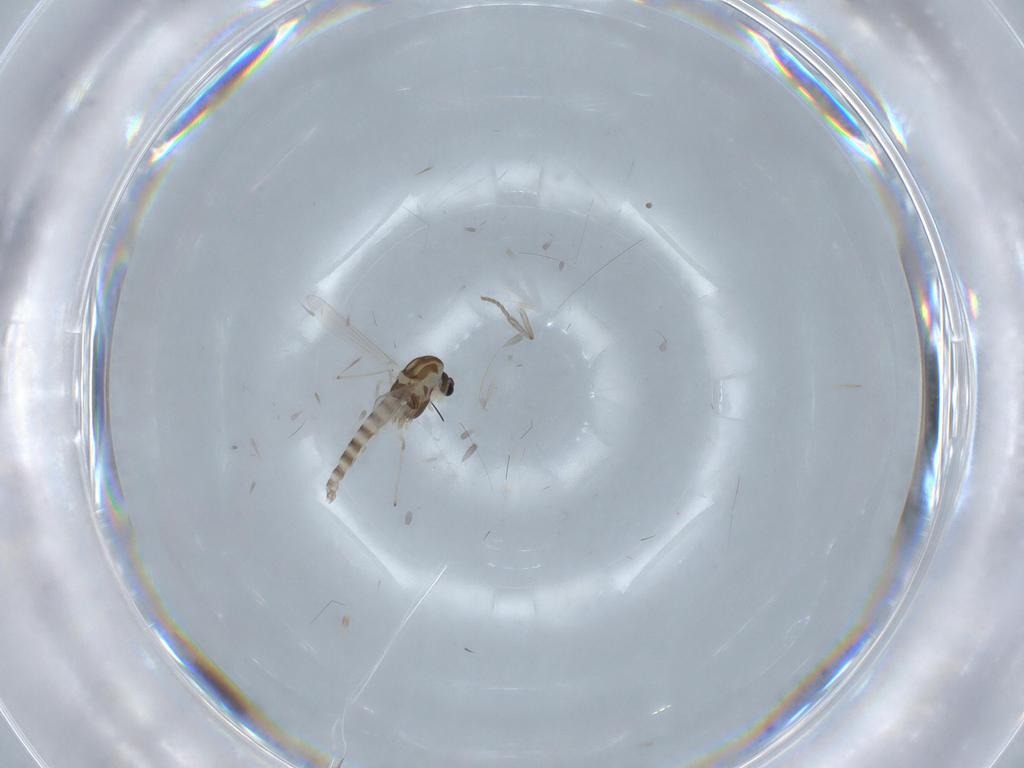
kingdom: Animalia
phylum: Arthropoda
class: Insecta
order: Diptera
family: Chironomidae
